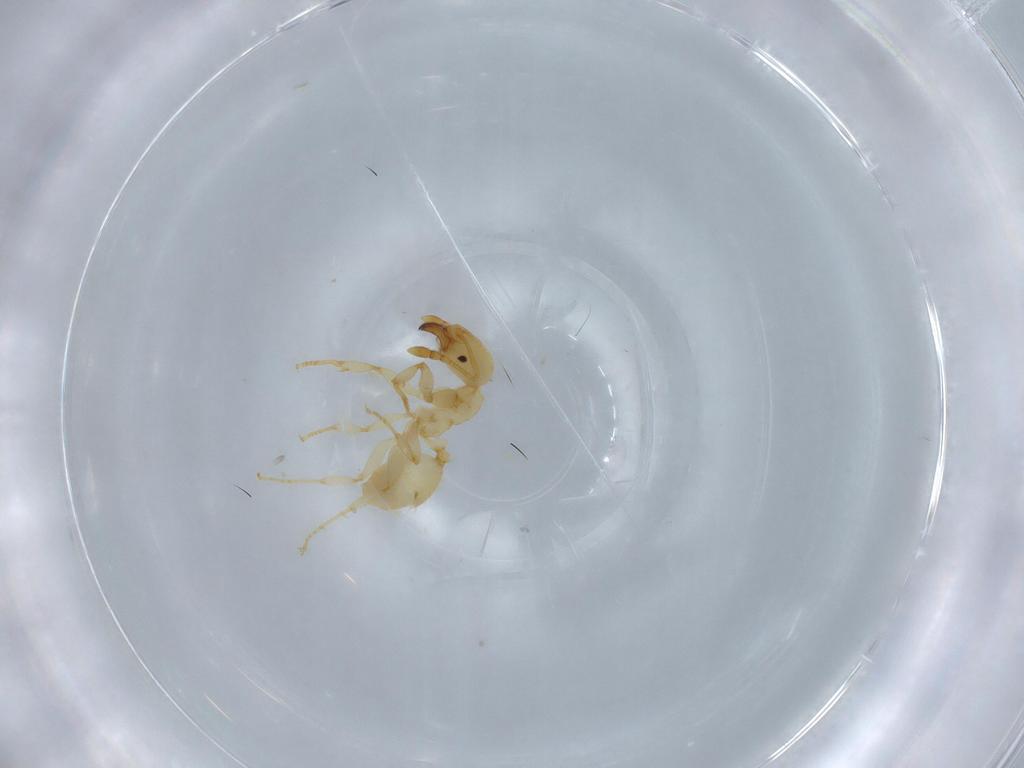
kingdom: Animalia
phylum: Arthropoda
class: Insecta
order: Hymenoptera
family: Formicidae
